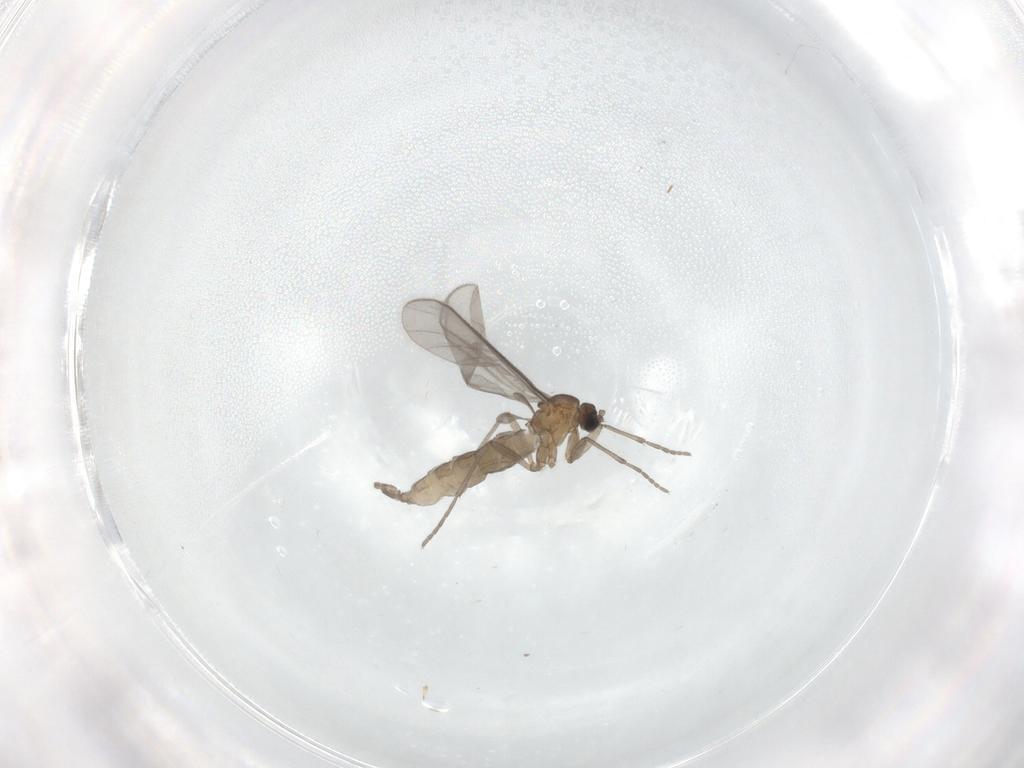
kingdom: Animalia
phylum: Arthropoda
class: Insecta
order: Diptera
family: Sciaridae
